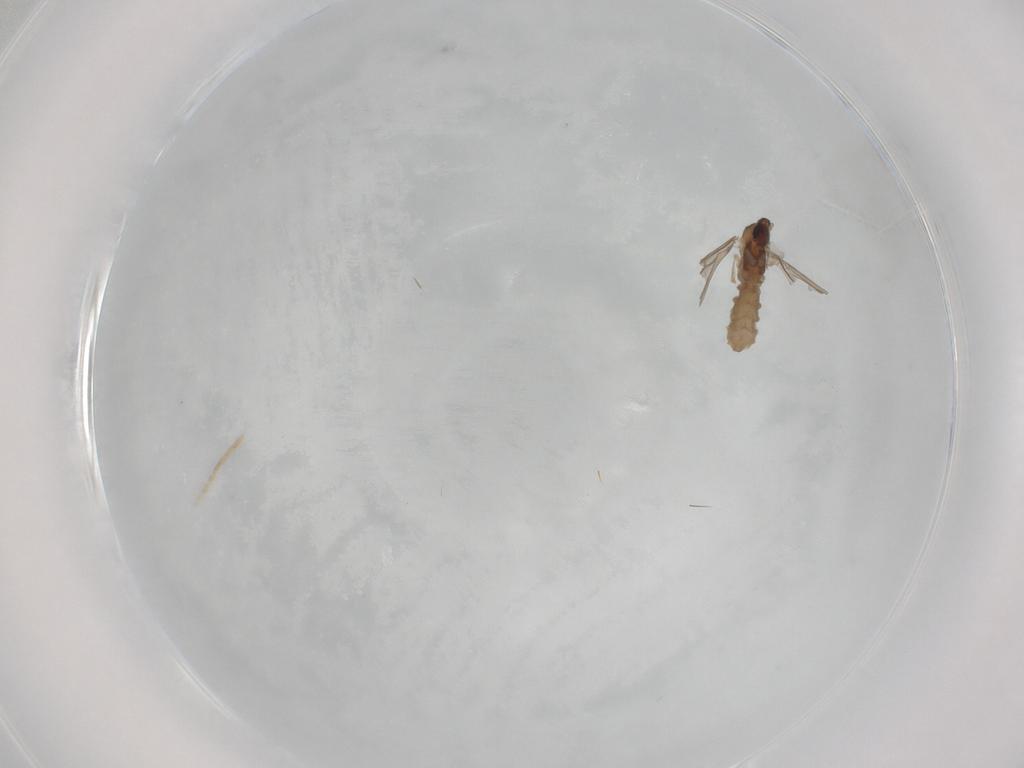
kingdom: Animalia
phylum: Arthropoda
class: Insecta
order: Diptera
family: Cecidomyiidae
